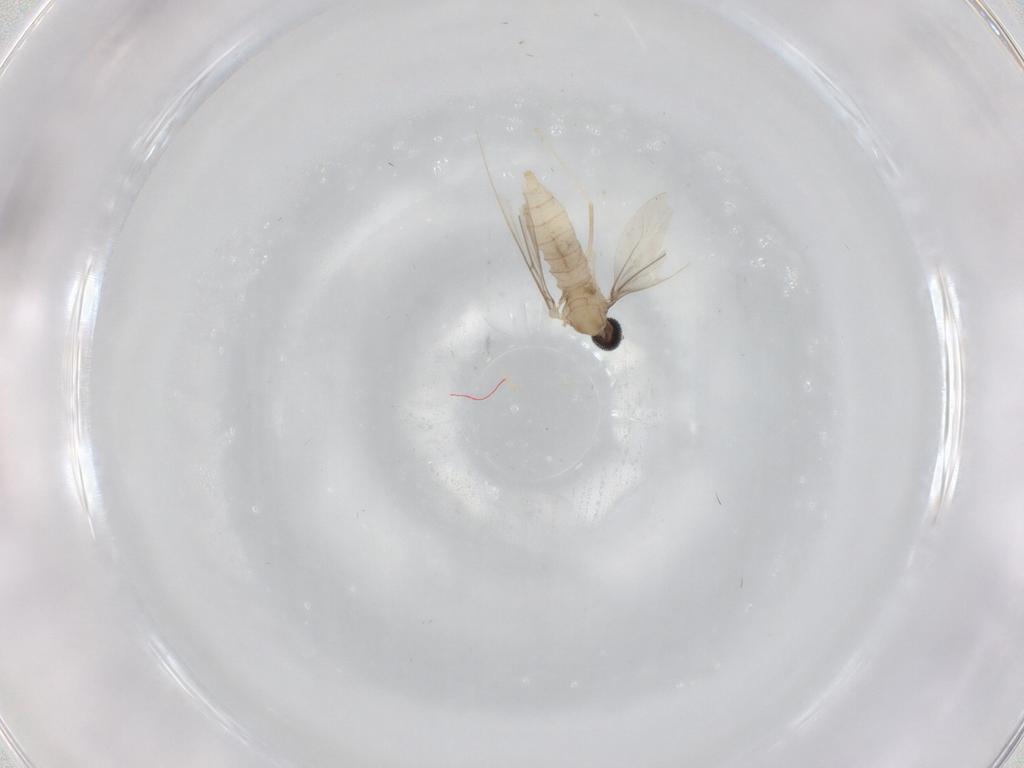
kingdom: Animalia
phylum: Arthropoda
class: Insecta
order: Diptera
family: Cecidomyiidae
